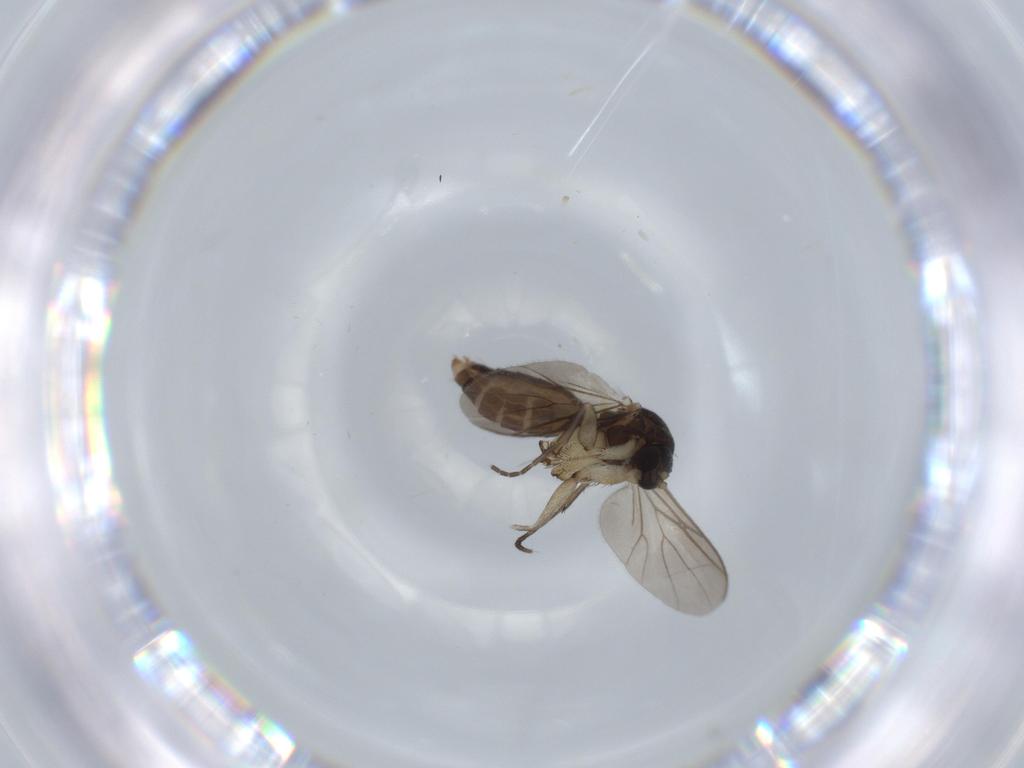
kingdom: Animalia
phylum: Arthropoda
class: Insecta
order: Diptera
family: Mycetophilidae
